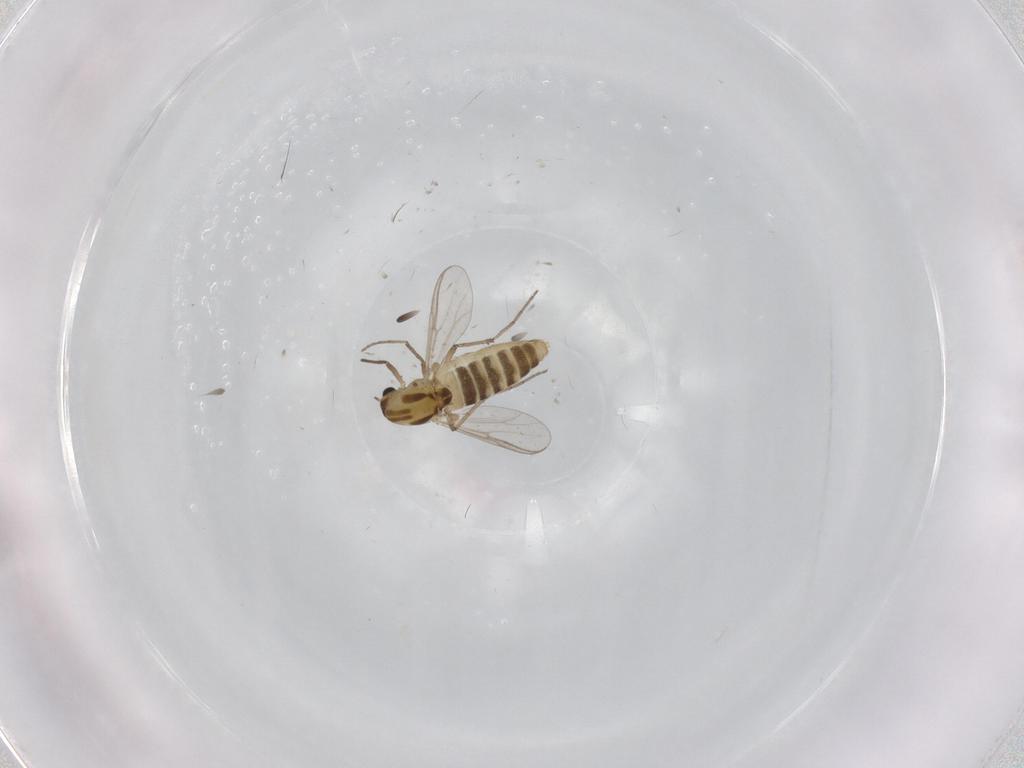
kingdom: Animalia
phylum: Arthropoda
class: Insecta
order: Diptera
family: Chironomidae
